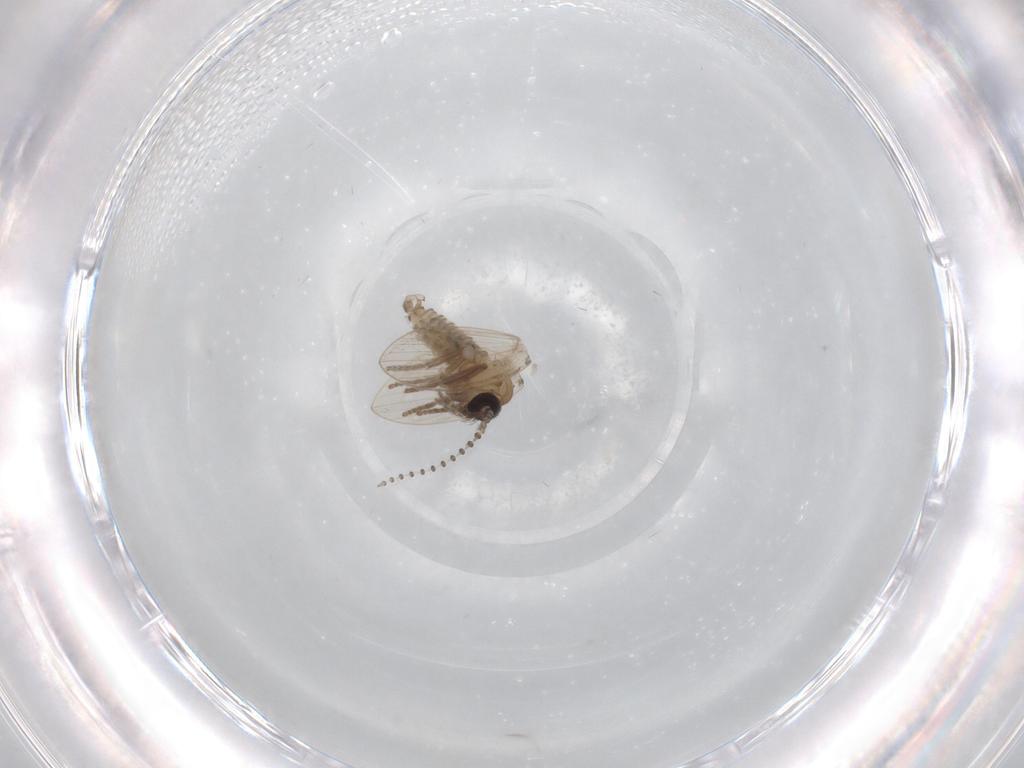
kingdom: Animalia
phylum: Arthropoda
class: Insecta
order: Diptera
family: Psychodidae
